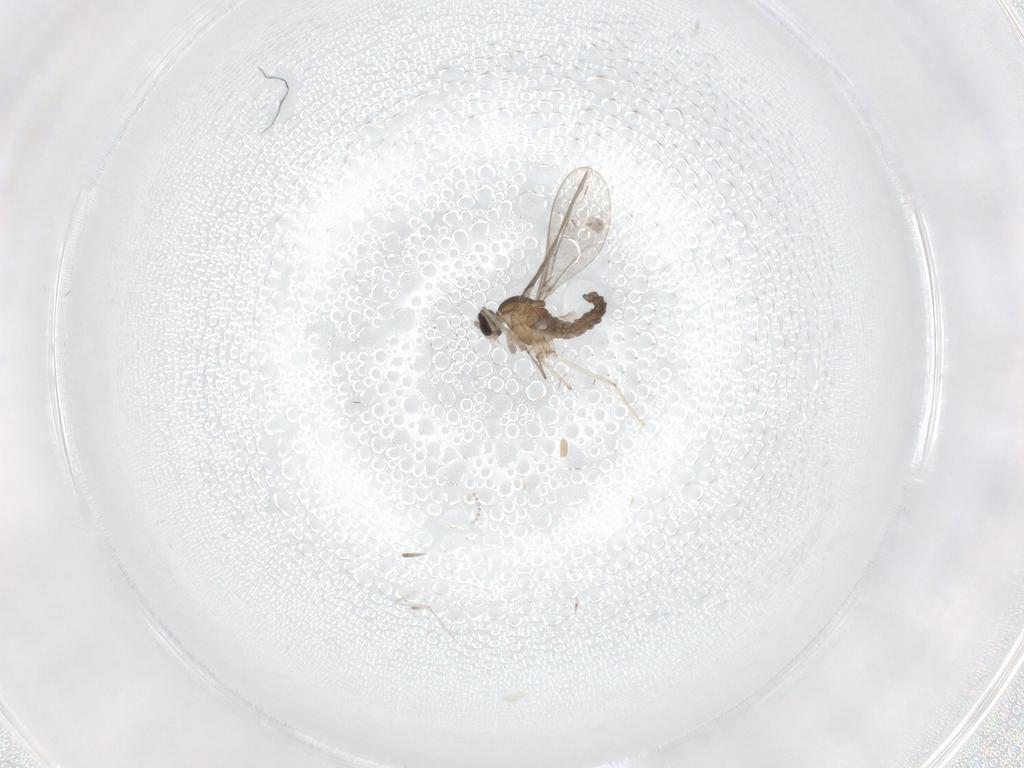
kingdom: Animalia
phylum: Arthropoda
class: Insecta
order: Diptera
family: Cecidomyiidae
